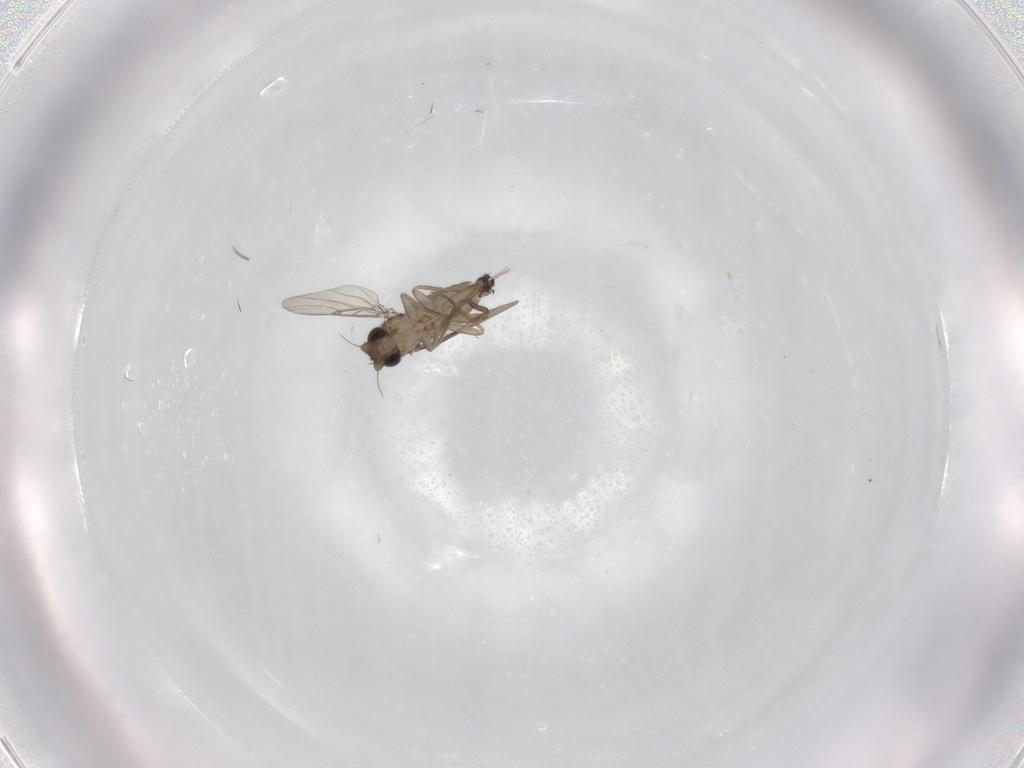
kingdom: Animalia
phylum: Arthropoda
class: Insecta
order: Diptera
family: Phoridae
